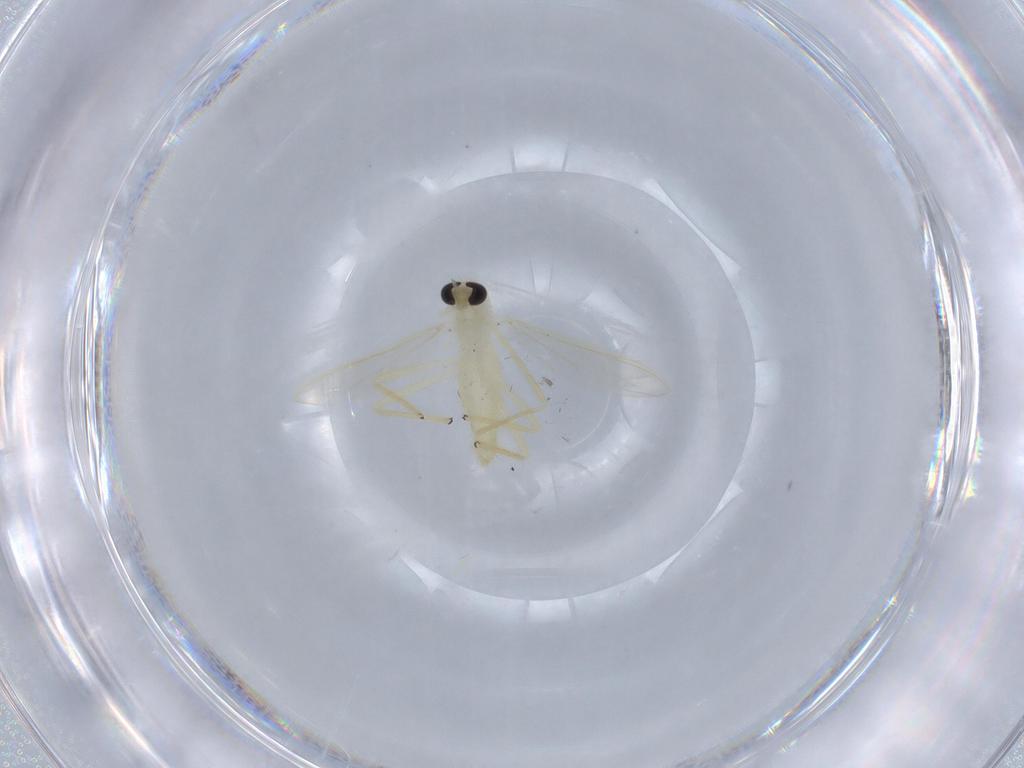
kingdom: Animalia
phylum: Arthropoda
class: Insecta
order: Diptera
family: Chironomidae
